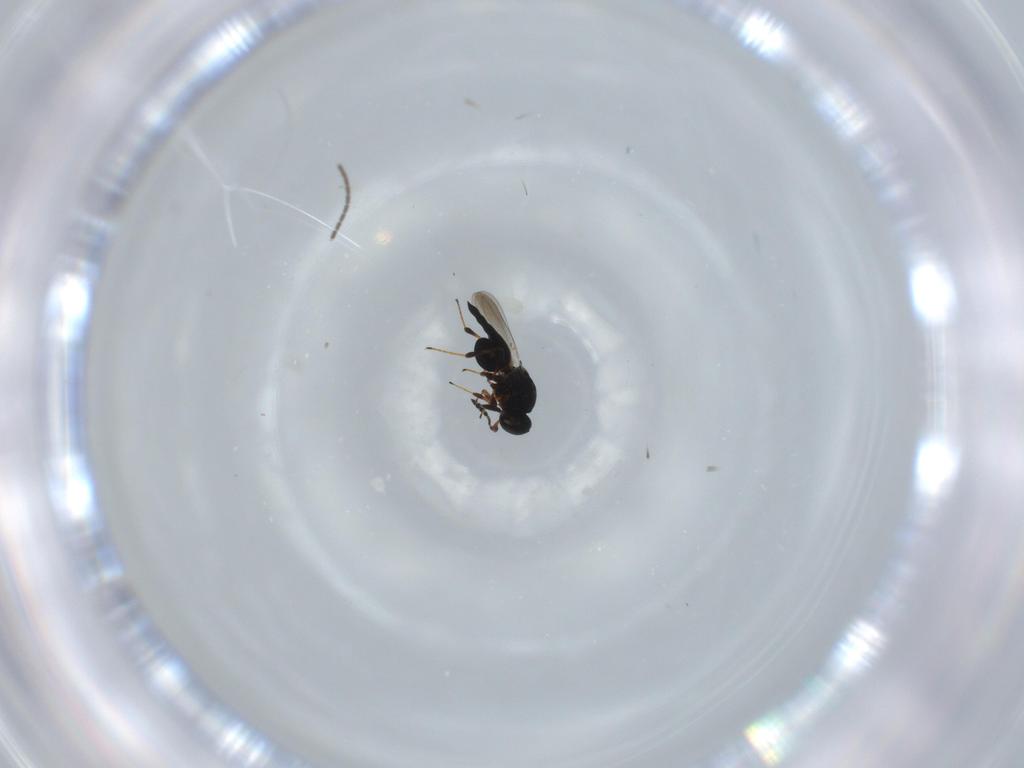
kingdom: Animalia
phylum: Arthropoda
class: Insecta
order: Hymenoptera
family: Platygastridae
